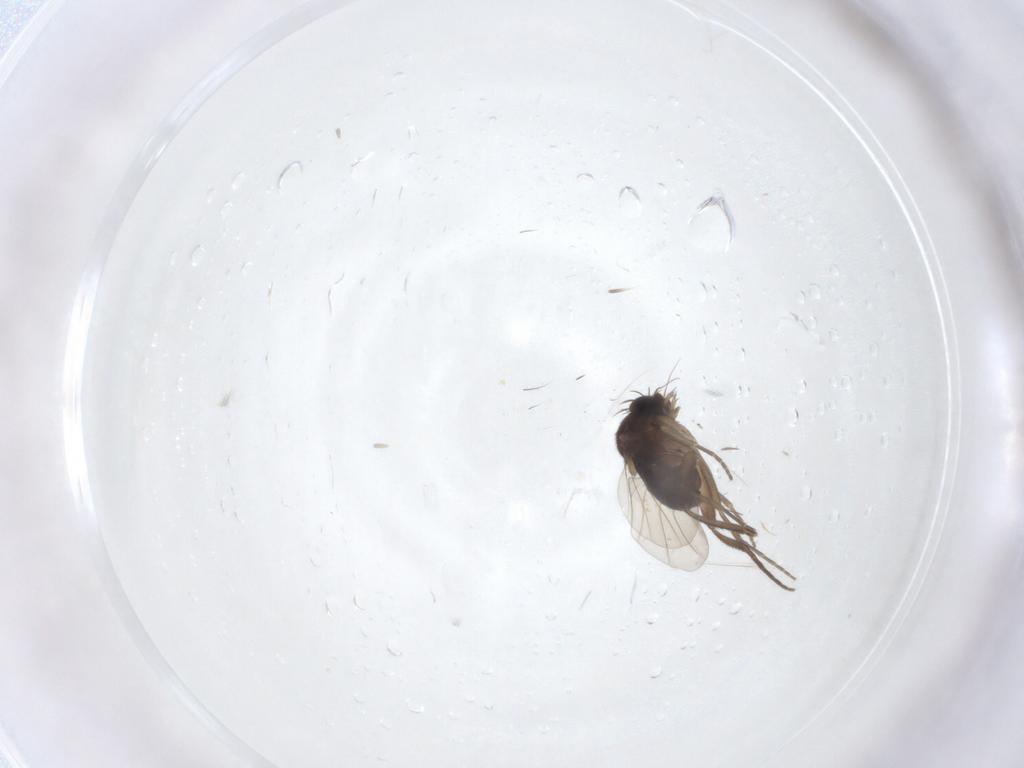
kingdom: Animalia
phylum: Arthropoda
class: Insecta
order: Diptera
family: Phoridae
